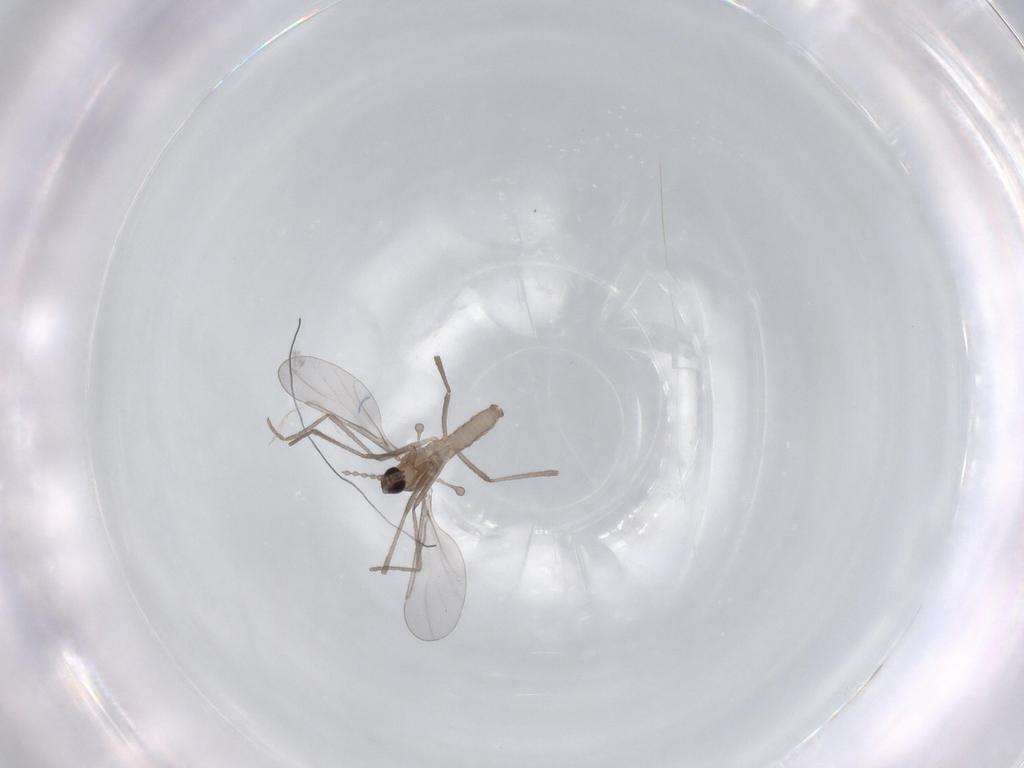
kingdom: Animalia
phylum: Arthropoda
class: Insecta
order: Diptera
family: Cecidomyiidae
